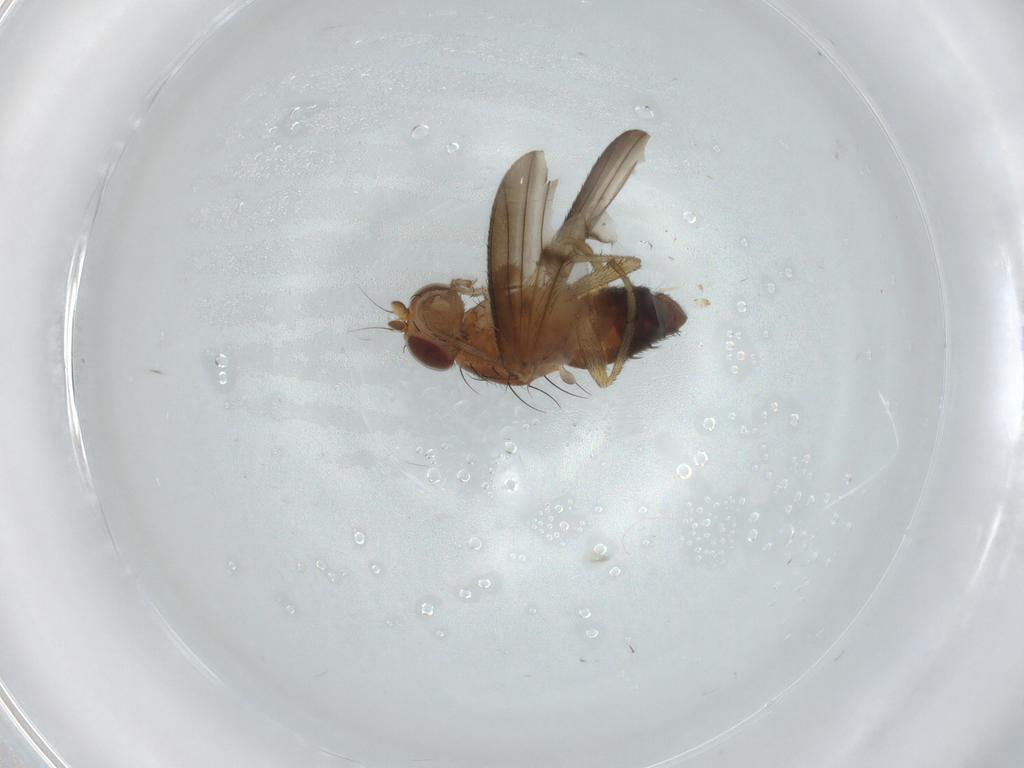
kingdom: Animalia
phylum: Arthropoda
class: Insecta
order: Diptera
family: Heleomyzidae
